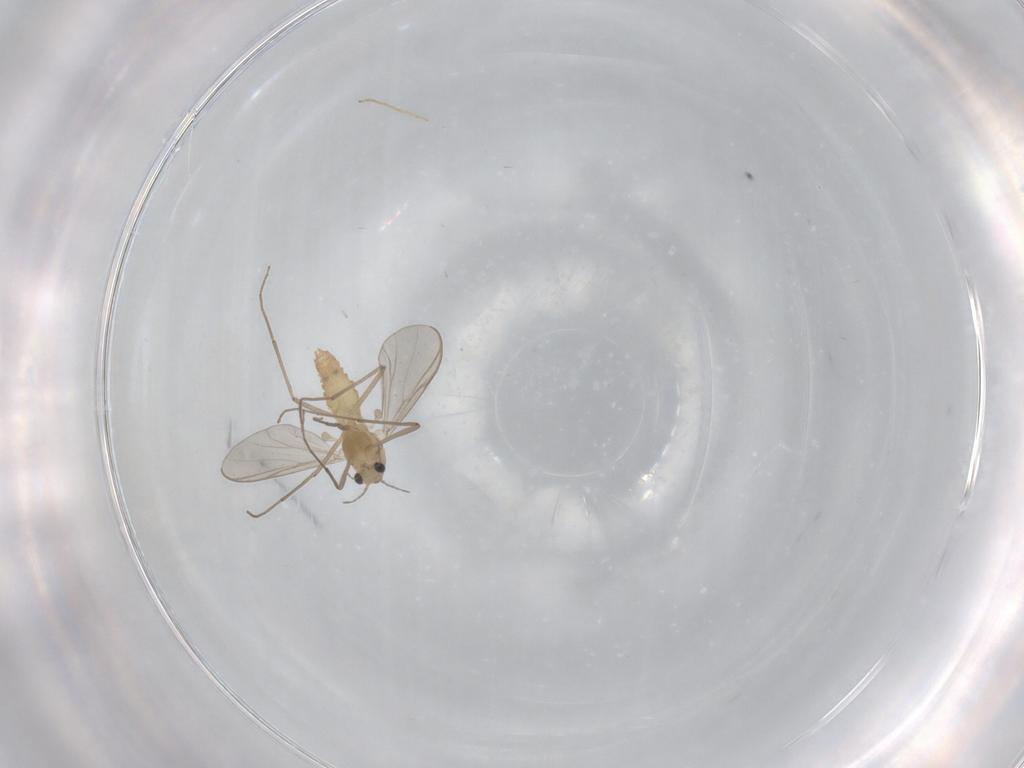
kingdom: Animalia
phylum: Arthropoda
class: Insecta
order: Diptera
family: Chironomidae
